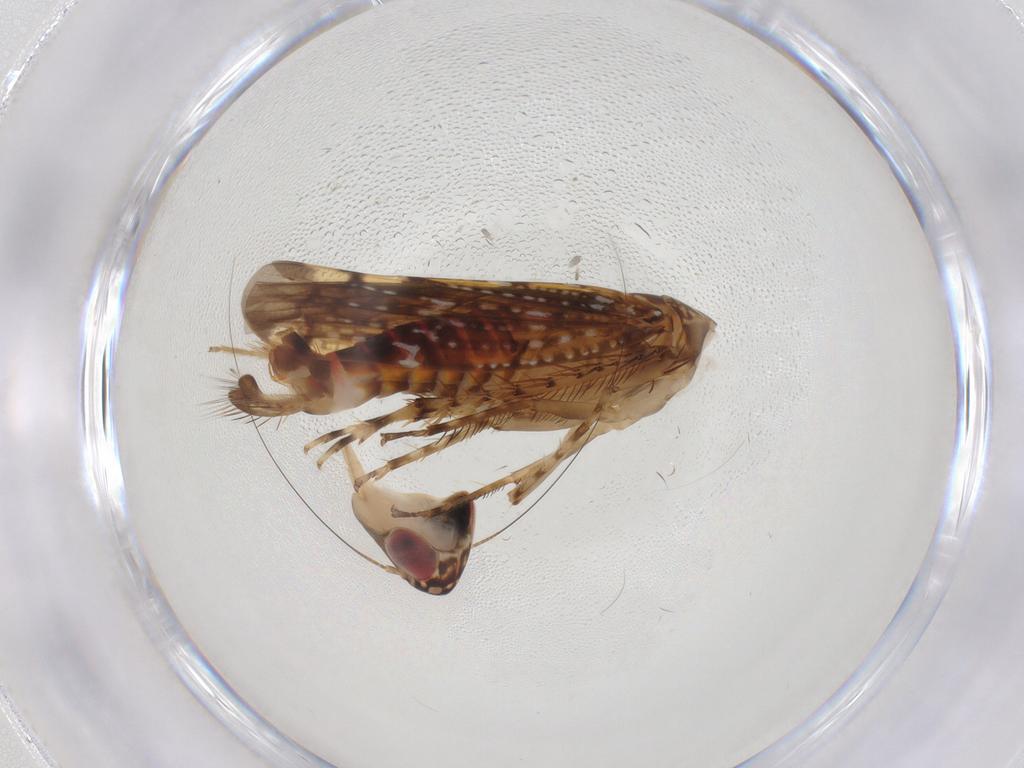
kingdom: Animalia
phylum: Arthropoda
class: Insecta
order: Hemiptera
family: Cicadellidae
